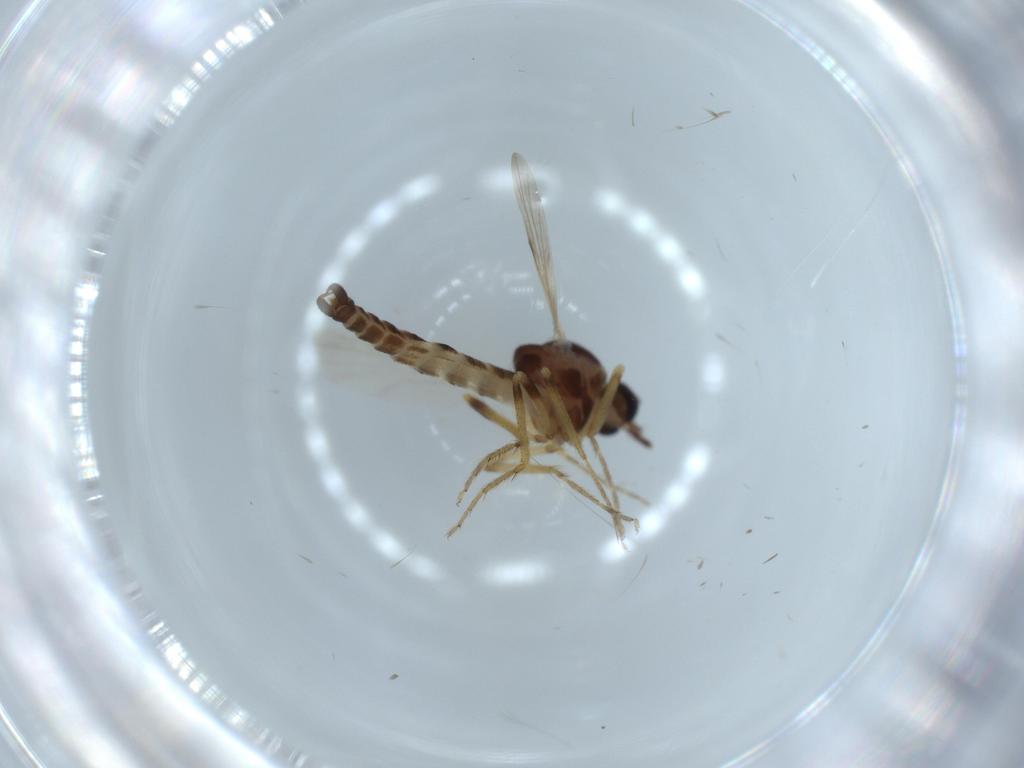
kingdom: Animalia
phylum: Arthropoda
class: Insecta
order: Diptera
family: Ceratopogonidae
